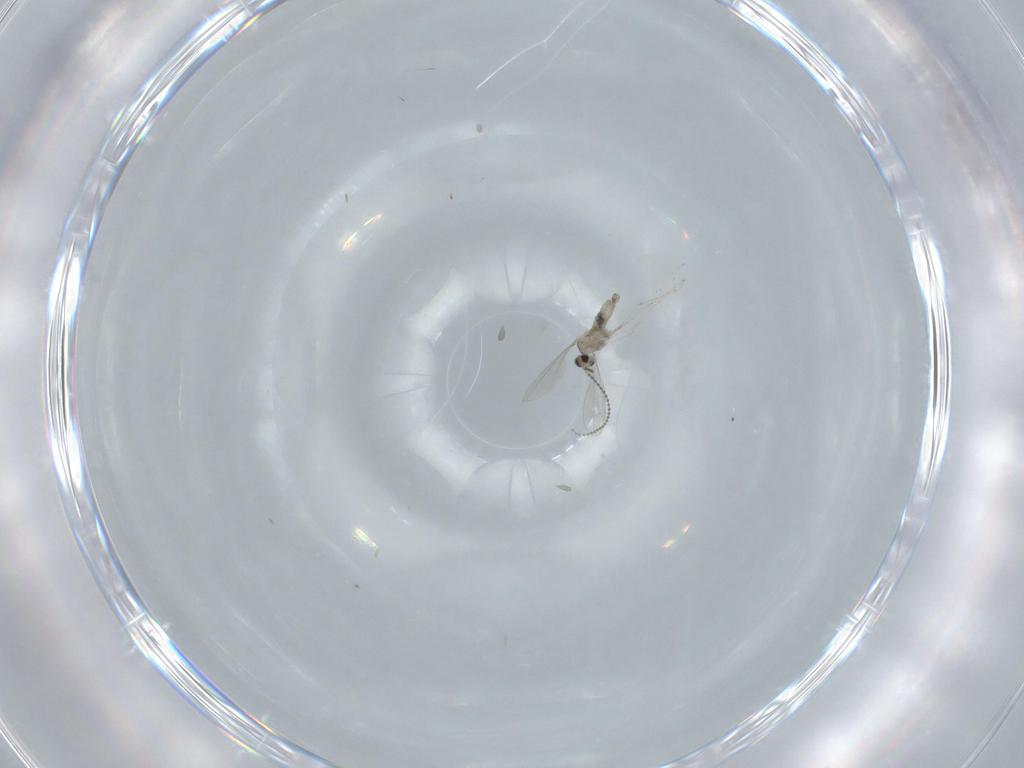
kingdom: Animalia
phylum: Arthropoda
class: Insecta
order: Diptera
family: Cecidomyiidae
